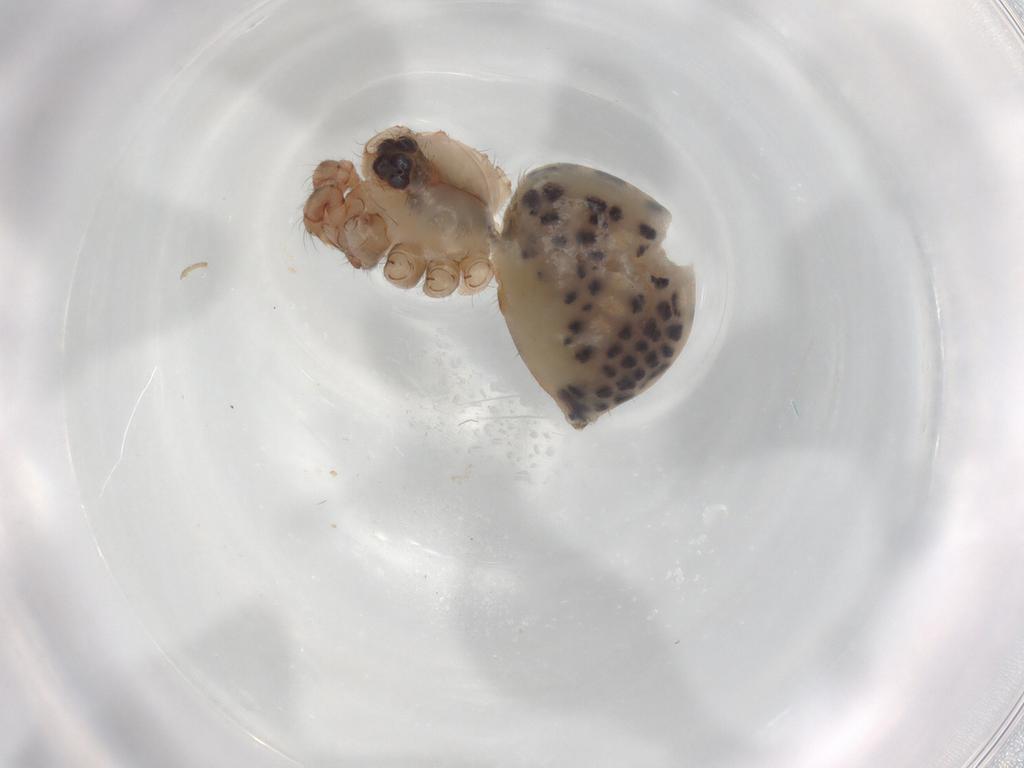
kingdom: Animalia
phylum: Arthropoda
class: Arachnida
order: Araneae
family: Pholcidae
